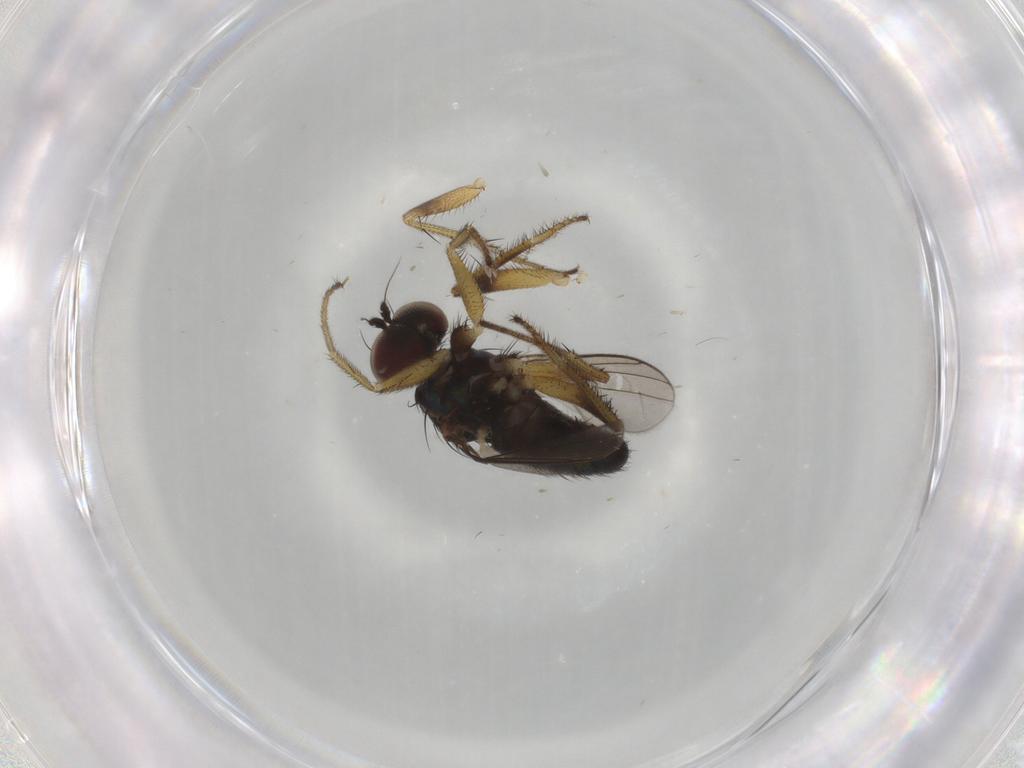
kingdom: Animalia
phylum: Arthropoda
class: Insecta
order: Diptera
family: Dolichopodidae
